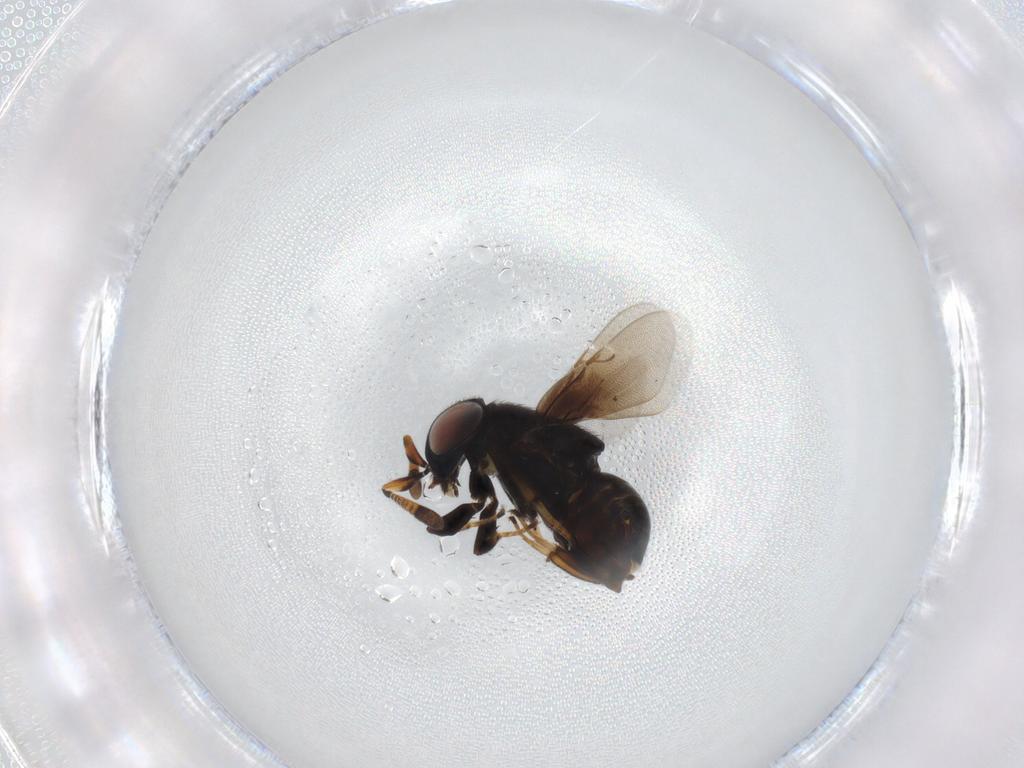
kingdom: Animalia
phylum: Arthropoda
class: Insecta
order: Hymenoptera
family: Encyrtidae
